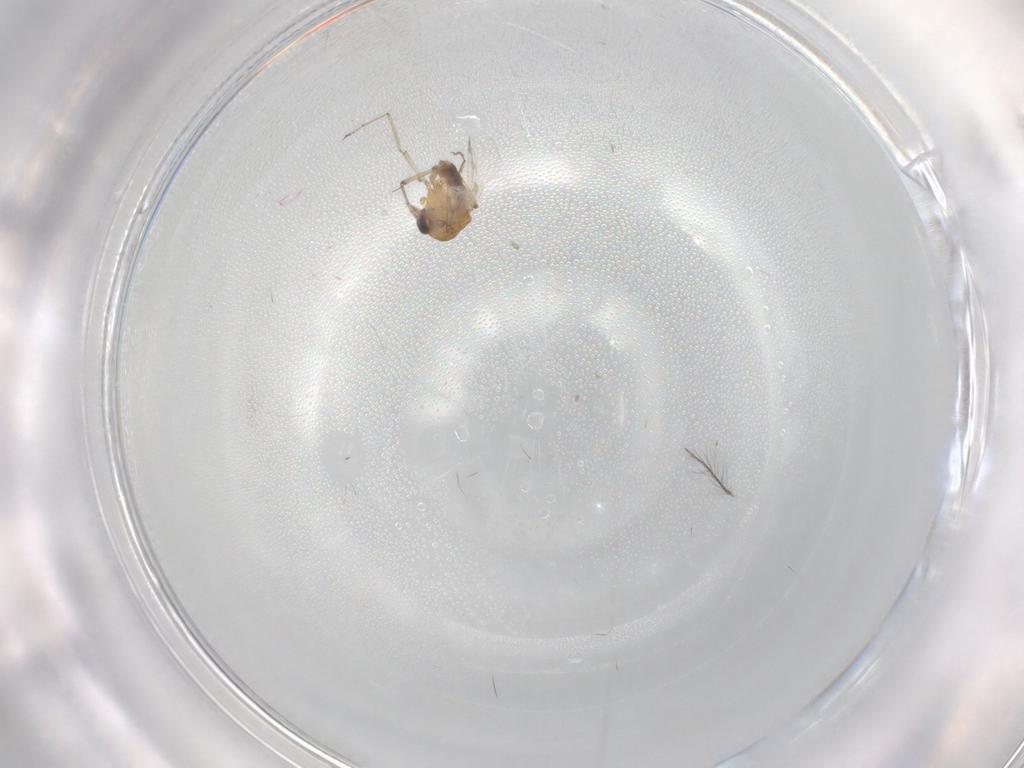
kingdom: Animalia
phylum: Arthropoda
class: Insecta
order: Diptera
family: Ceratopogonidae
